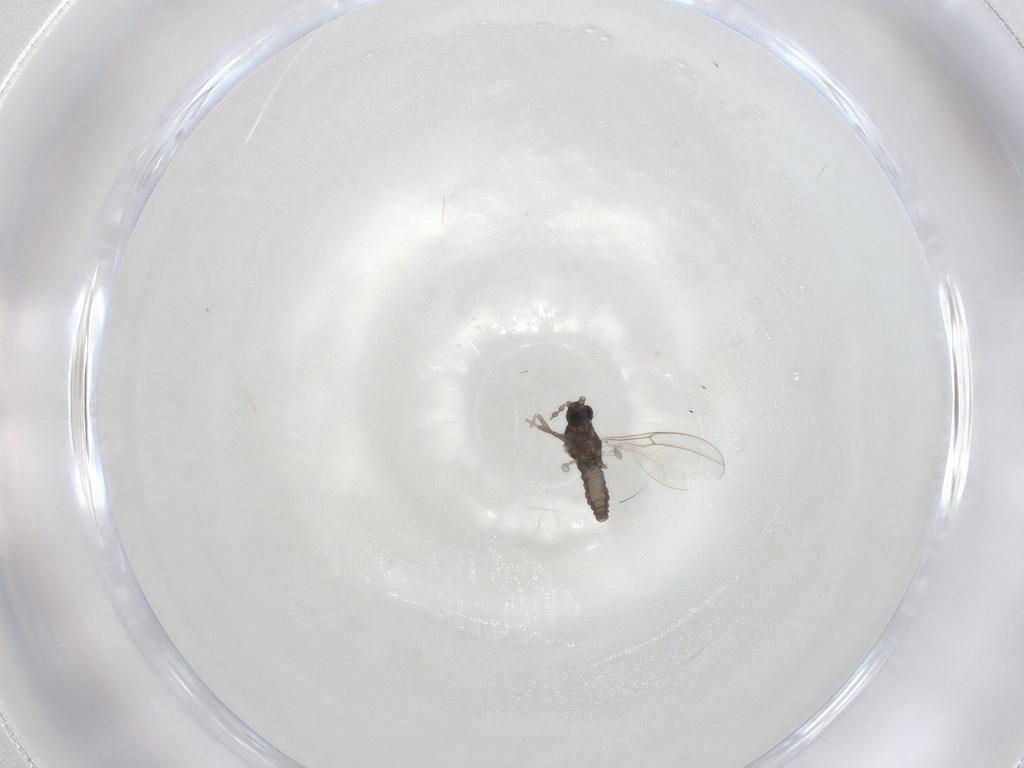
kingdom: Animalia
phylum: Arthropoda
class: Insecta
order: Diptera
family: Cecidomyiidae
